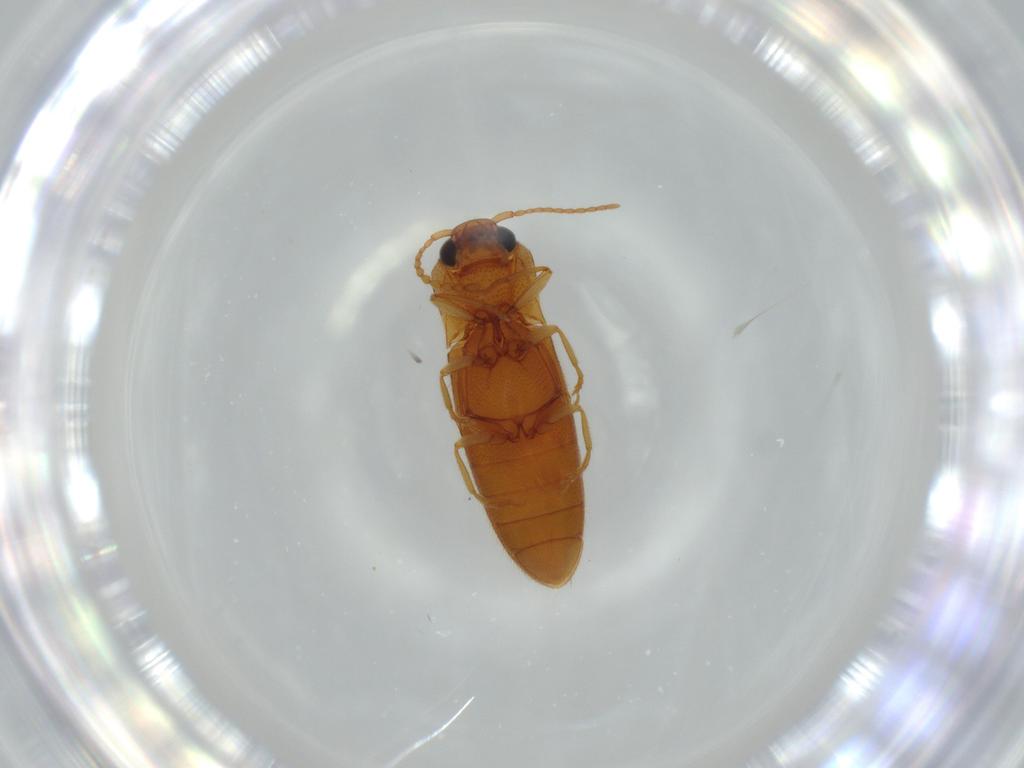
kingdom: Animalia
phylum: Arthropoda
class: Insecta
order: Coleoptera
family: Elateridae
